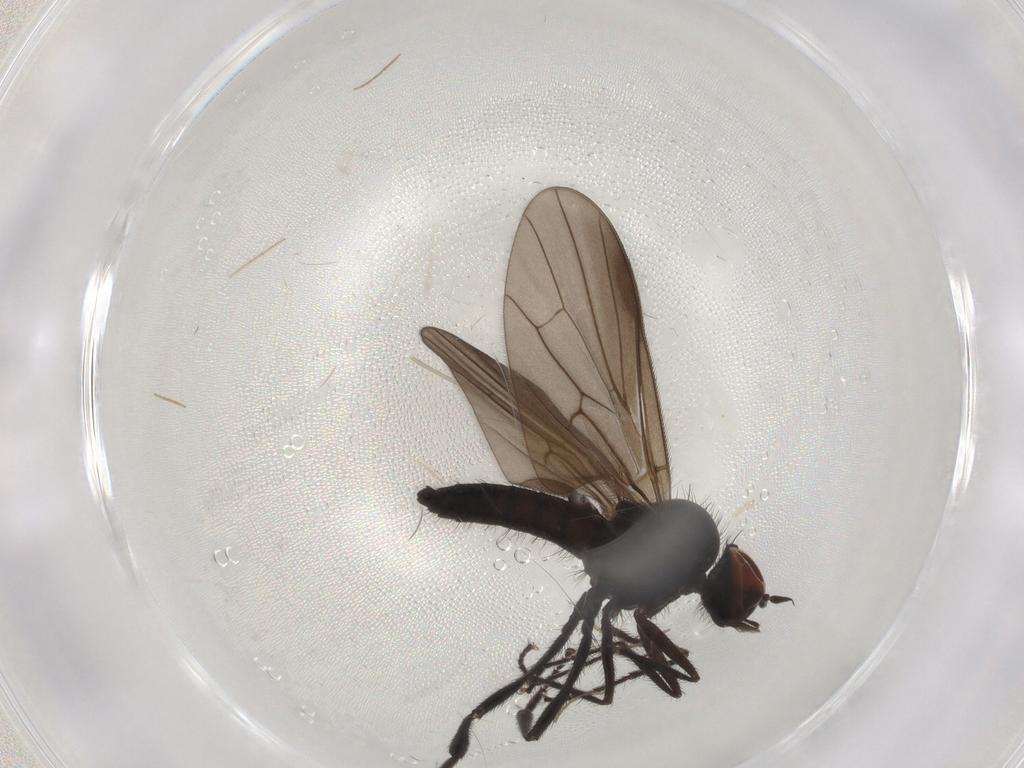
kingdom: Animalia
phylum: Arthropoda
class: Insecta
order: Diptera
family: Hybotidae
